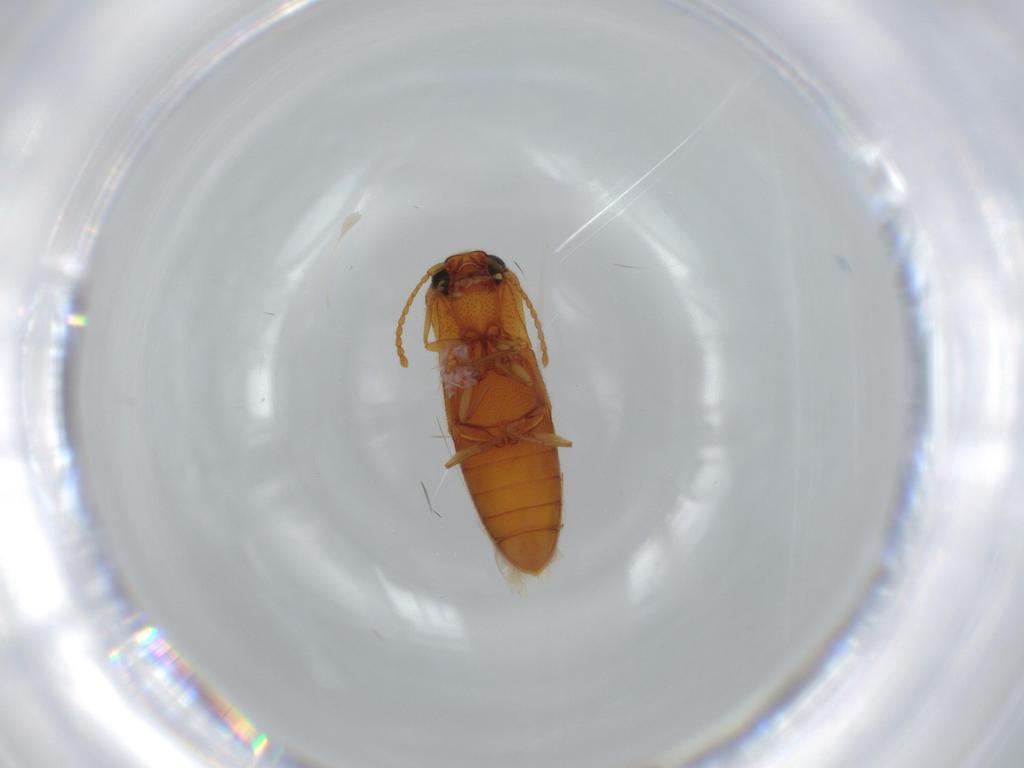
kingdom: Animalia
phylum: Arthropoda
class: Insecta
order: Coleoptera
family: Elateridae
